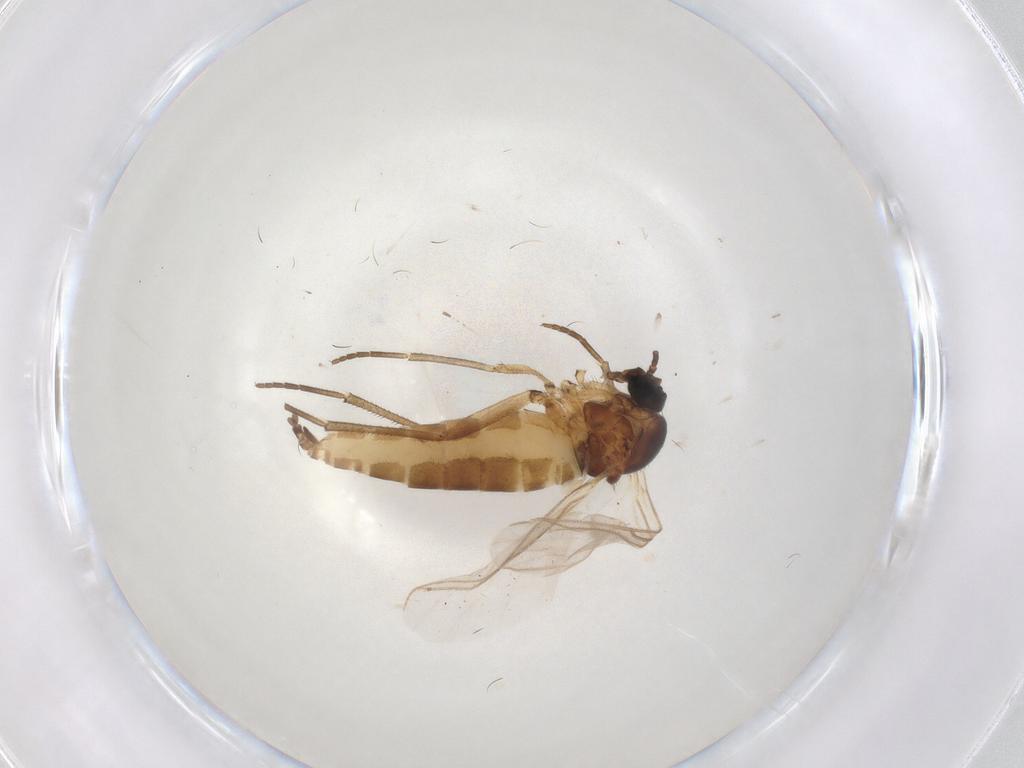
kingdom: Animalia
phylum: Arthropoda
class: Insecta
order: Diptera
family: Sciaridae
